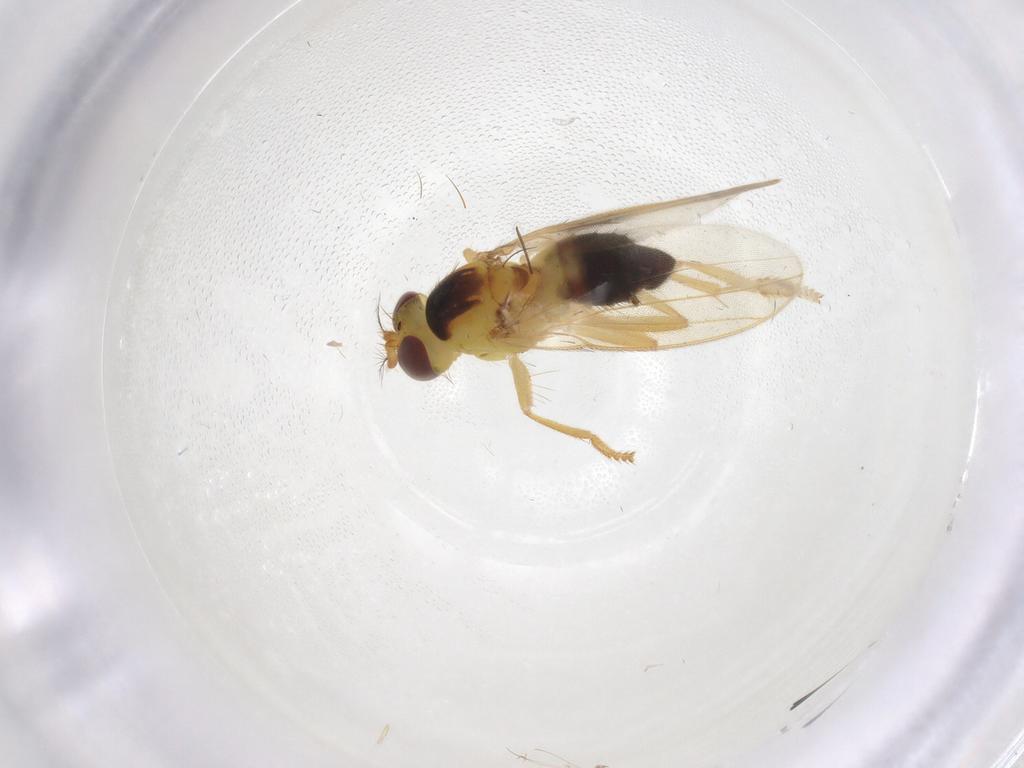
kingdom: Animalia
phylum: Arthropoda
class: Insecta
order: Diptera
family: Periscelididae
